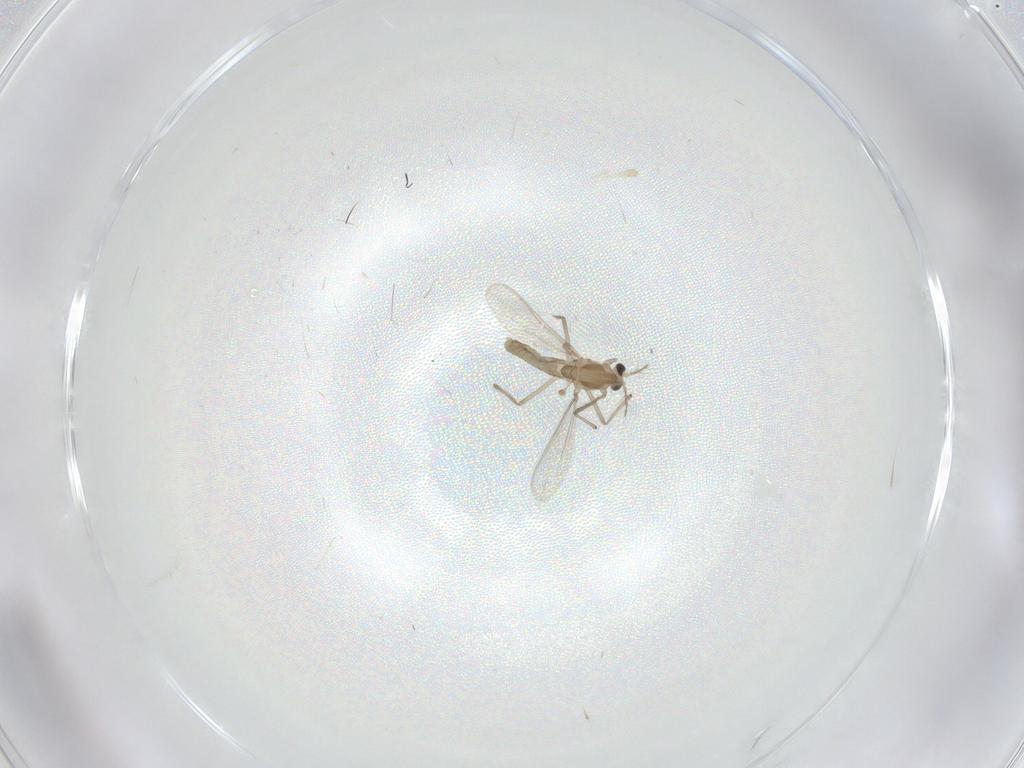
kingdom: Animalia
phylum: Arthropoda
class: Insecta
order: Diptera
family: Chironomidae
